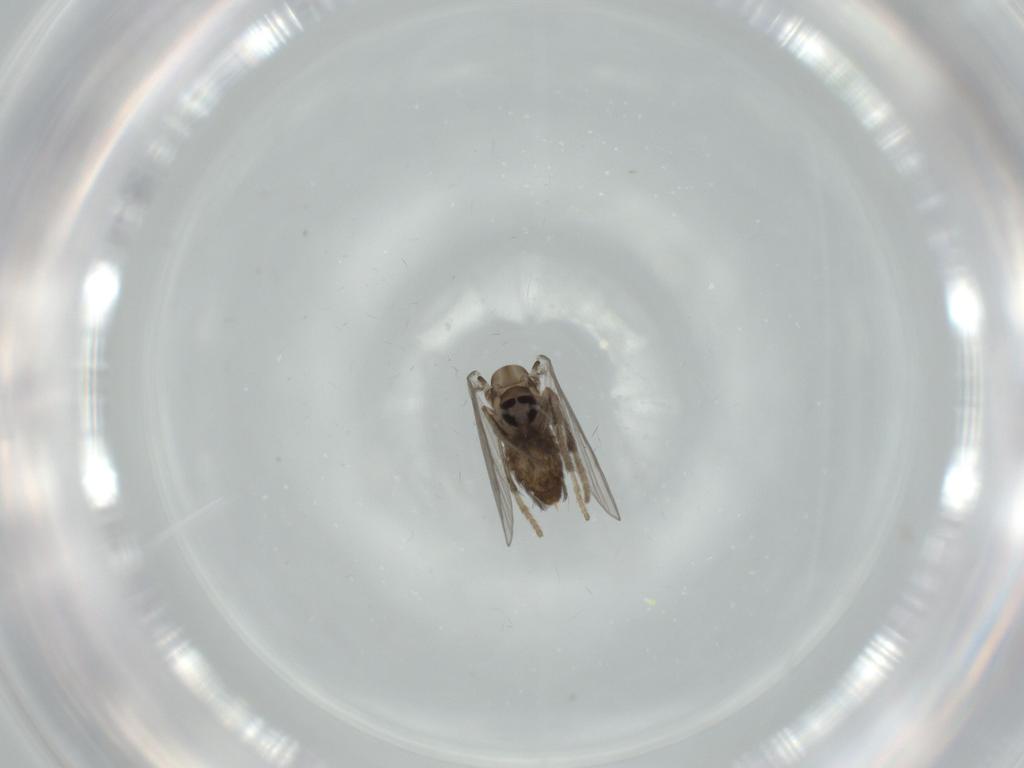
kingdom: Animalia
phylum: Arthropoda
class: Insecta
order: Diptera
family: Psychodidae
